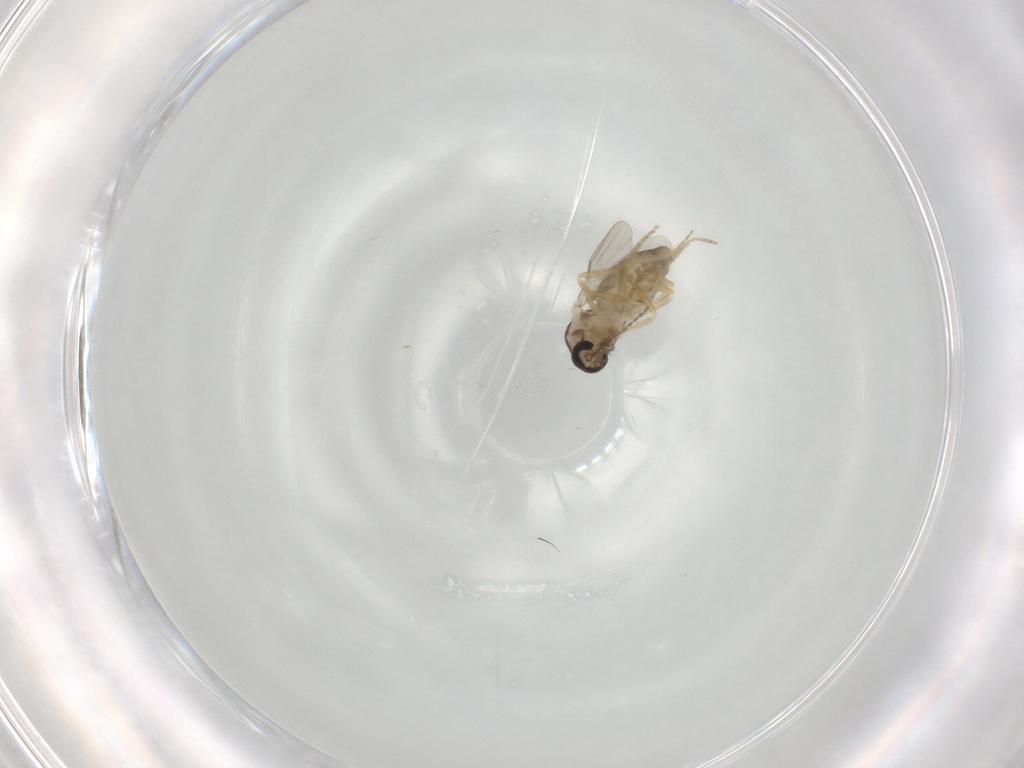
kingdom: Animalia
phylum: Arthropoda
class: Insecta
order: Diptera
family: Ceratopogonidae
